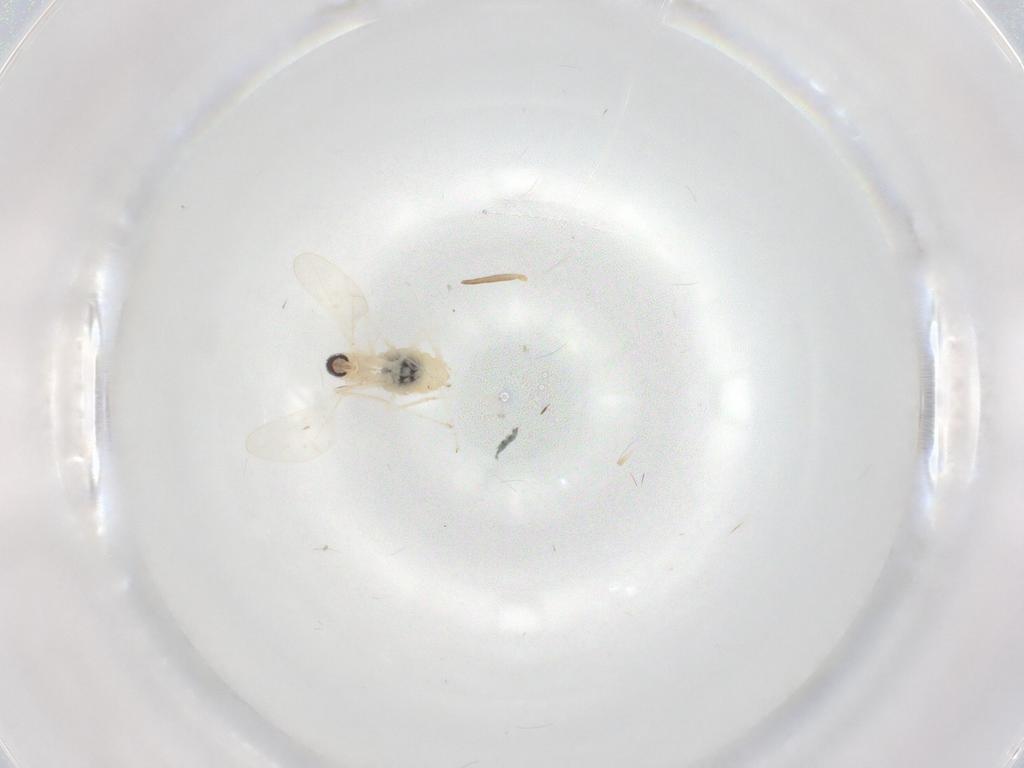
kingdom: Animalia
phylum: Arthropoda
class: Insecta
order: Diptera
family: Cecidomyiidae
